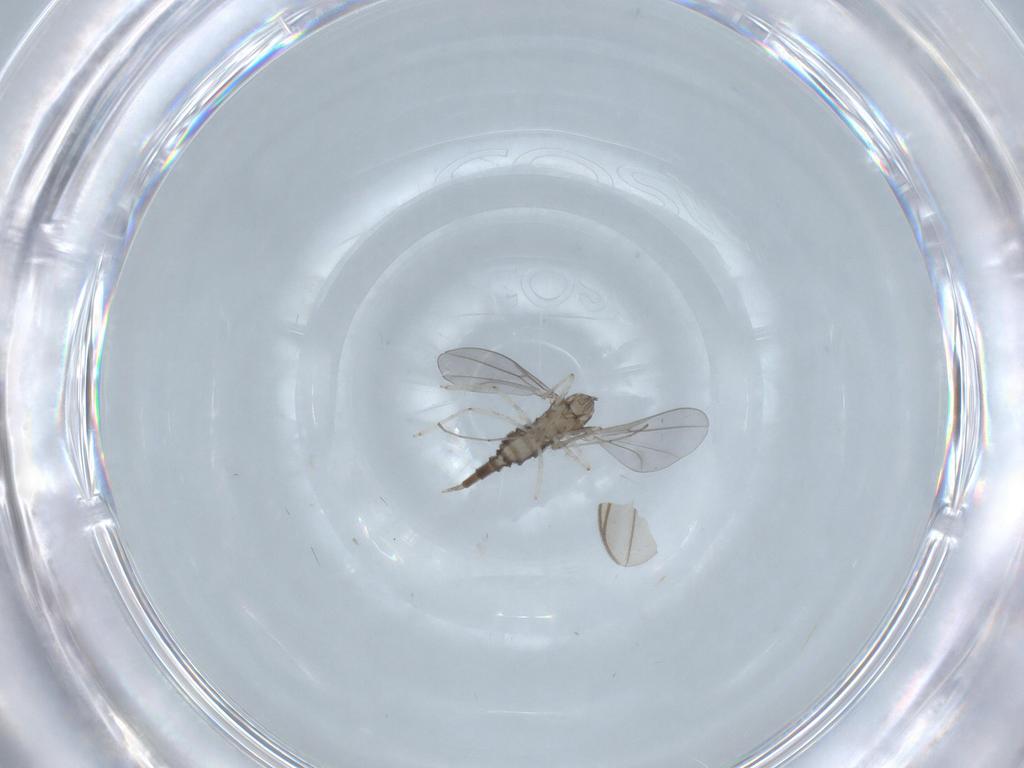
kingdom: Animalia
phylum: Arthropoda
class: Insecta
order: Diptera
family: Cecidomyiidae
